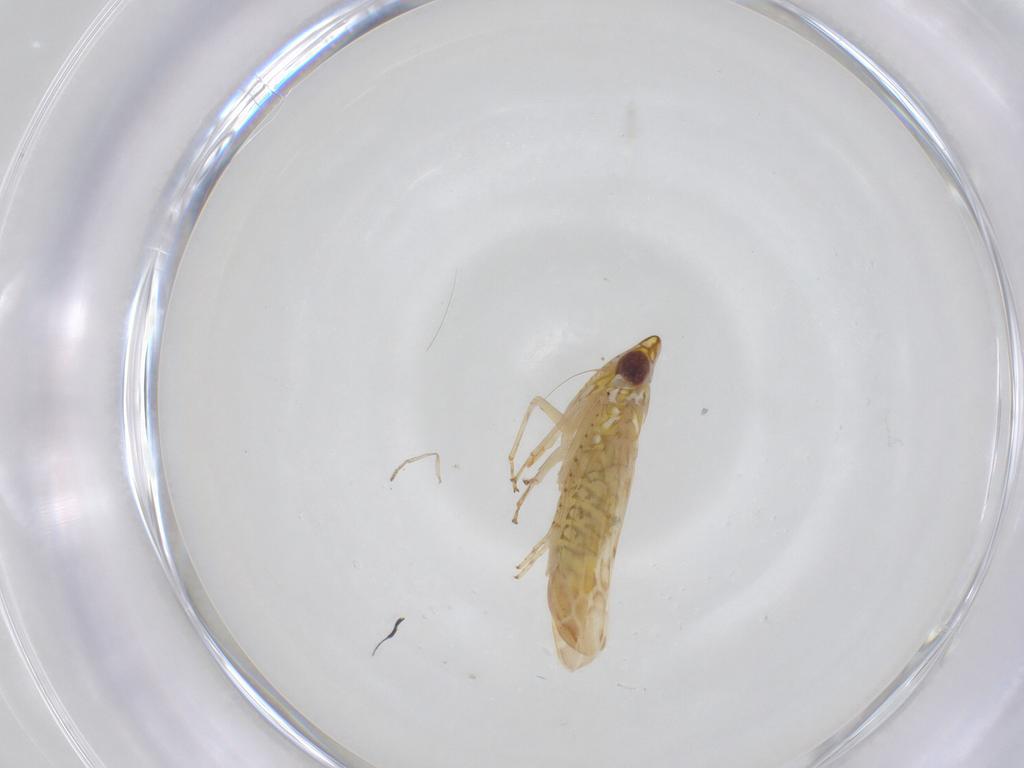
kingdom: Animalia
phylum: Arthropoda
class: Insecta
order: Hemiptera
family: Cicadellidae
